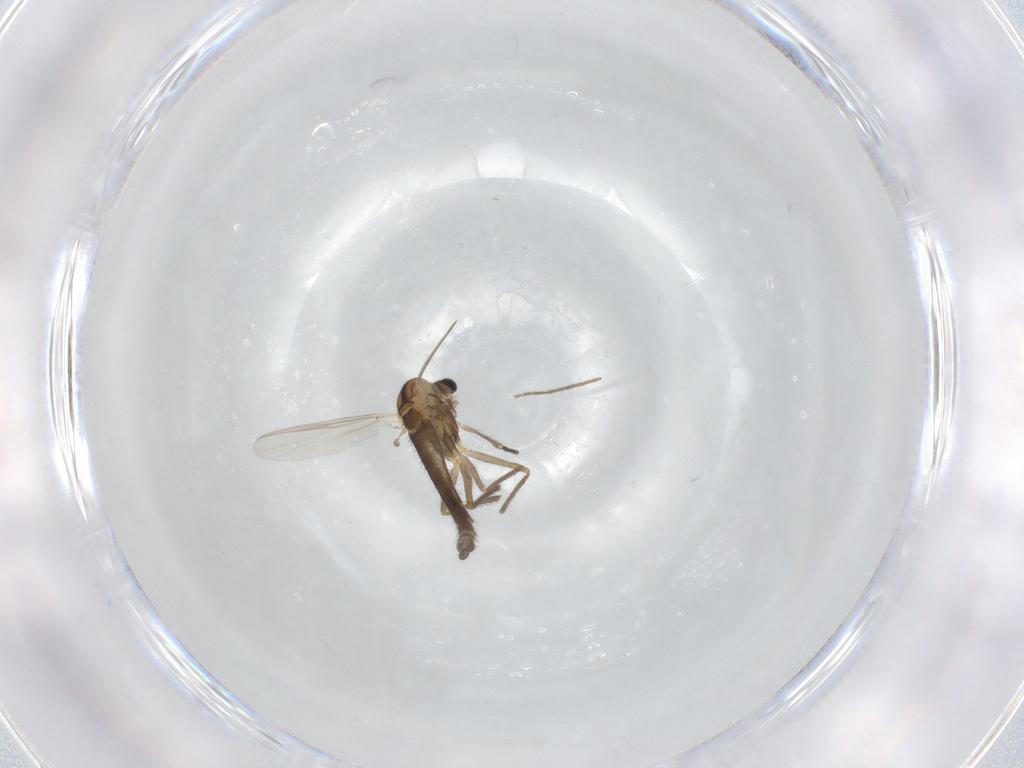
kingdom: Animalia
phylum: Arthropoda
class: Insecta
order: Diptera
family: Chironomidae
